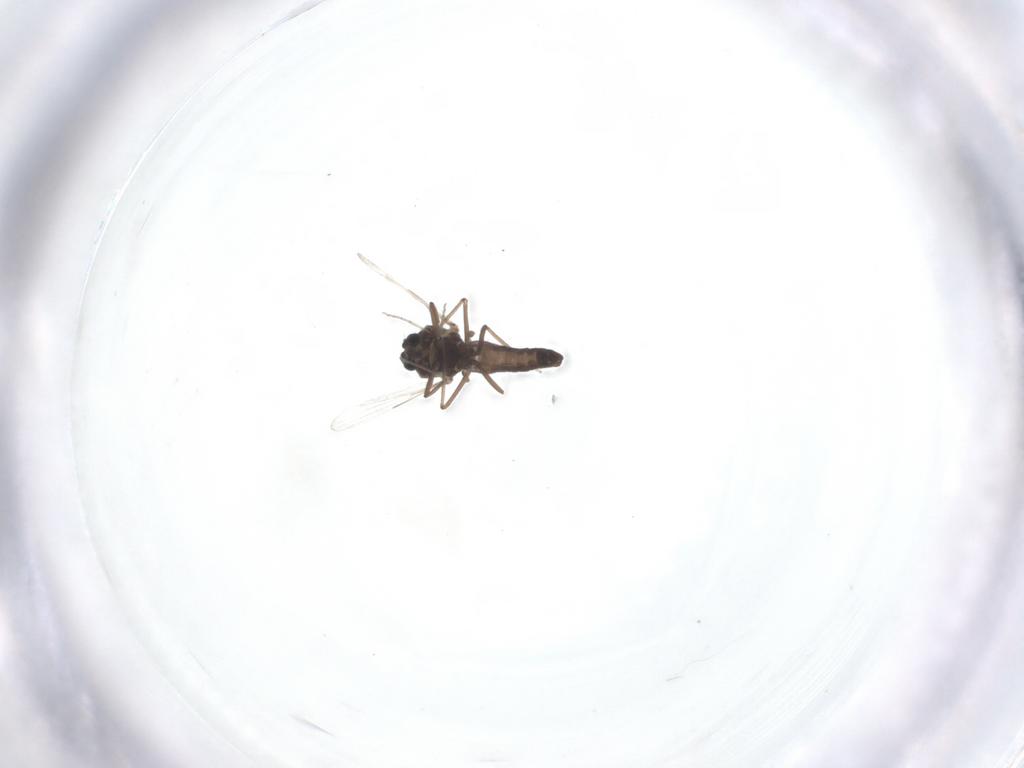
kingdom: Animalia
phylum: Arthropoda
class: Insecta
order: Diptera
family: Ceratopogonidae
